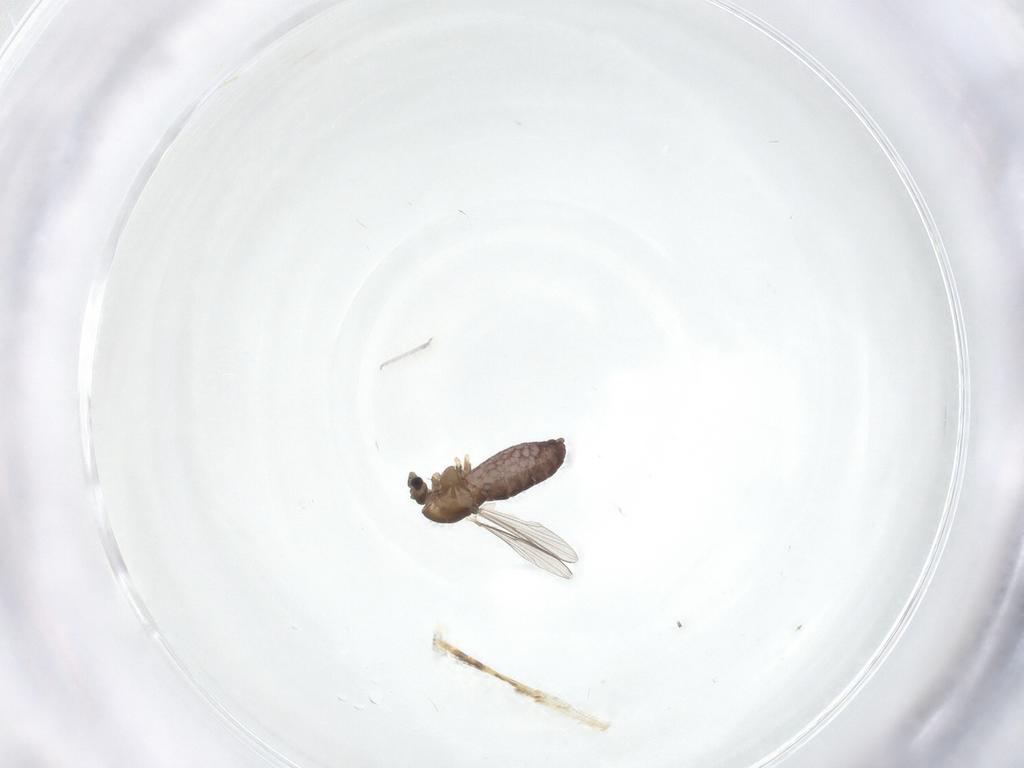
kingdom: Animalia
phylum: Arthropoda
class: Insecta
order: Diptera
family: Chironomidae
